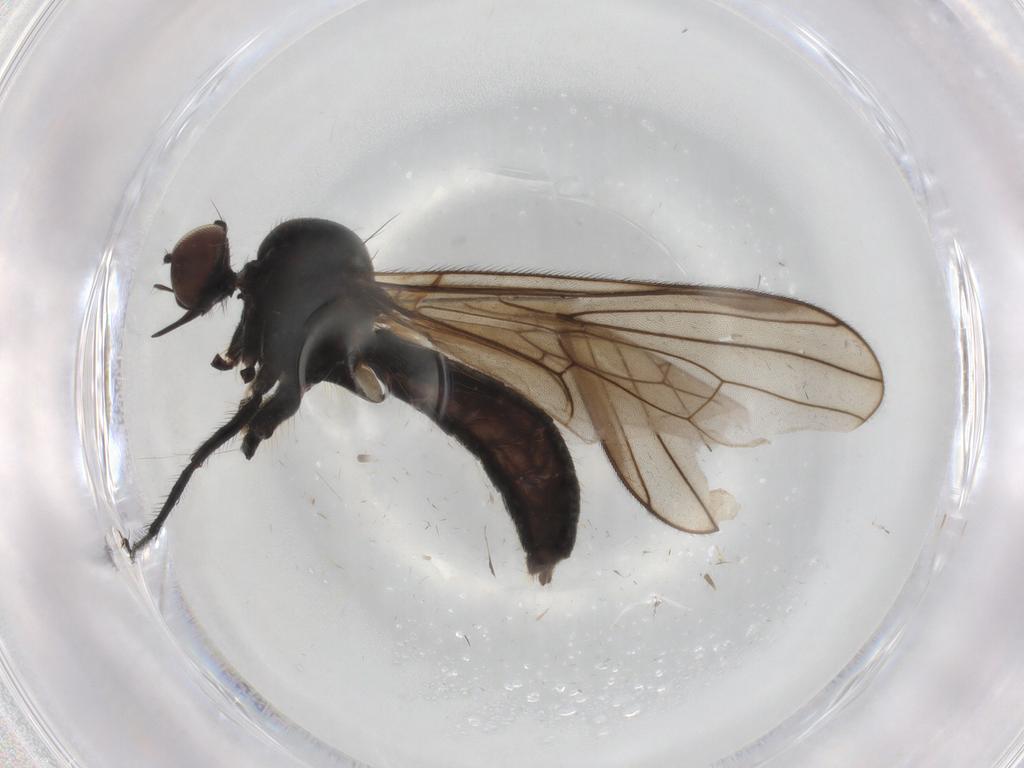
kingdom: Animalia
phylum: Arthropoda
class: Insecta
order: Diptera
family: Hybotidae
